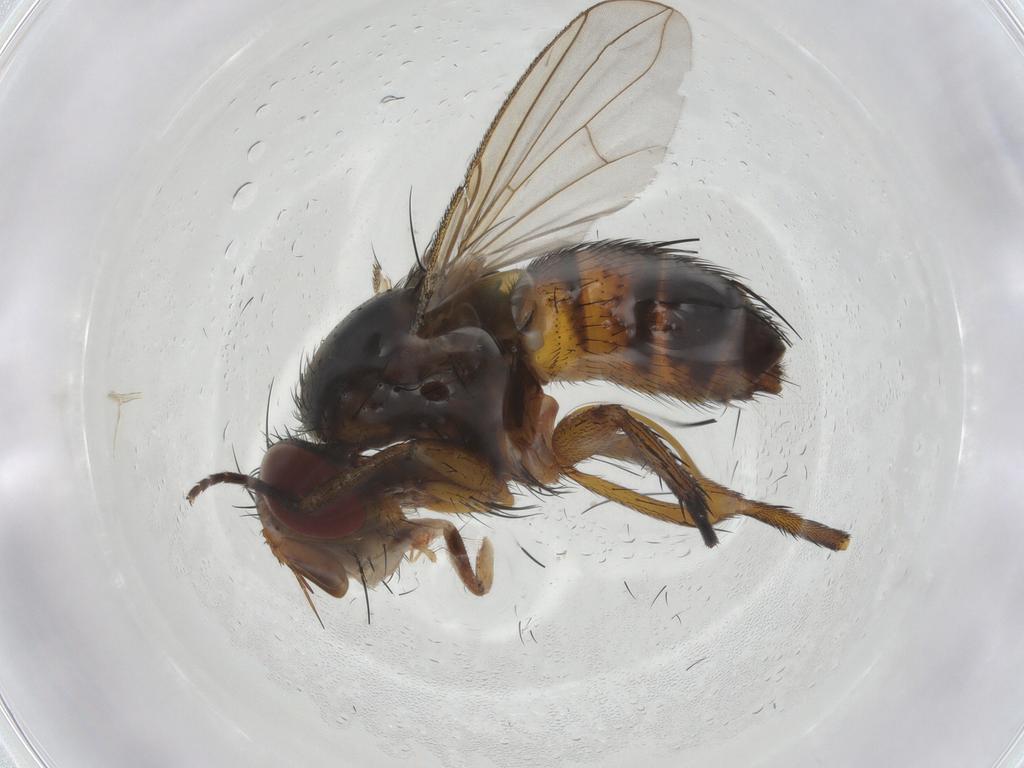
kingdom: Animalia
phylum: Arthropoda
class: Insecta
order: Diptera
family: Tachinidae
